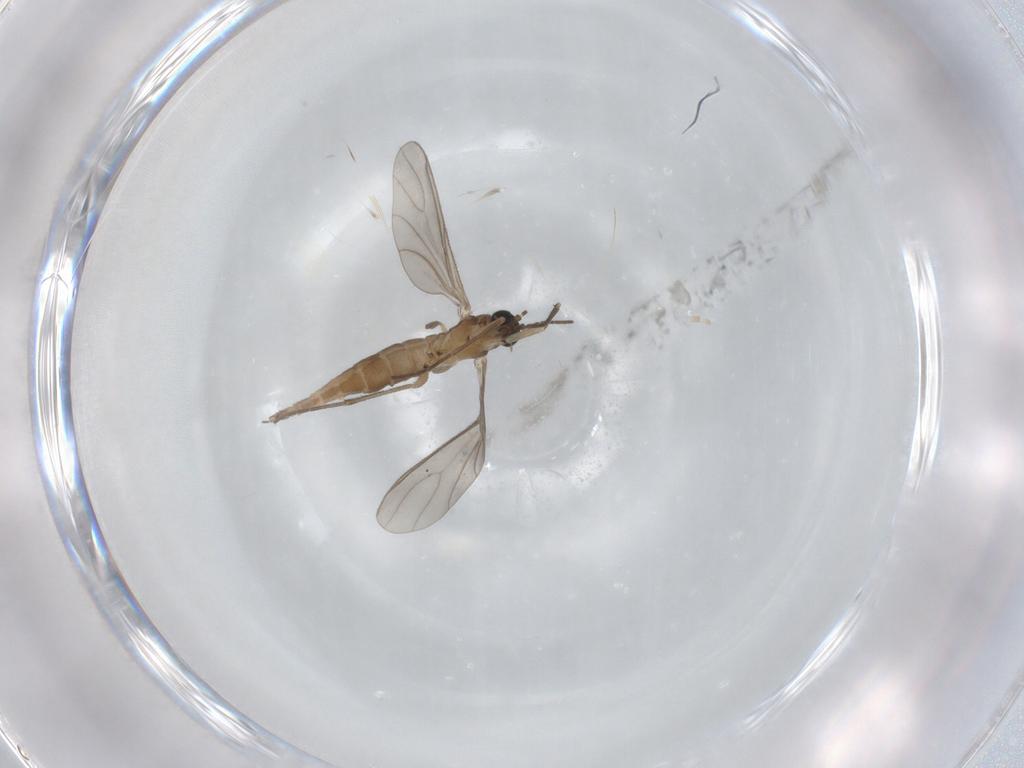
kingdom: Animalia
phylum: Arthropoda
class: Insecta
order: Diptera
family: Sciaridae
